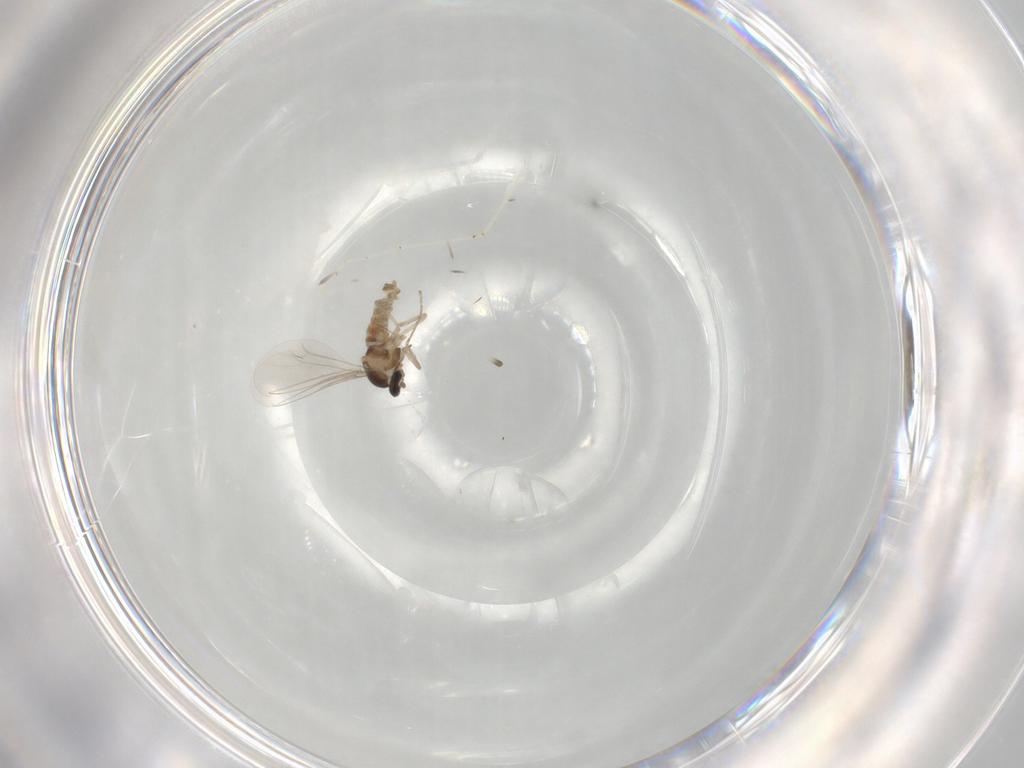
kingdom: Animalia
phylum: Arthropoda
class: Insecta
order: Diptera
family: Cecidomyiidae
